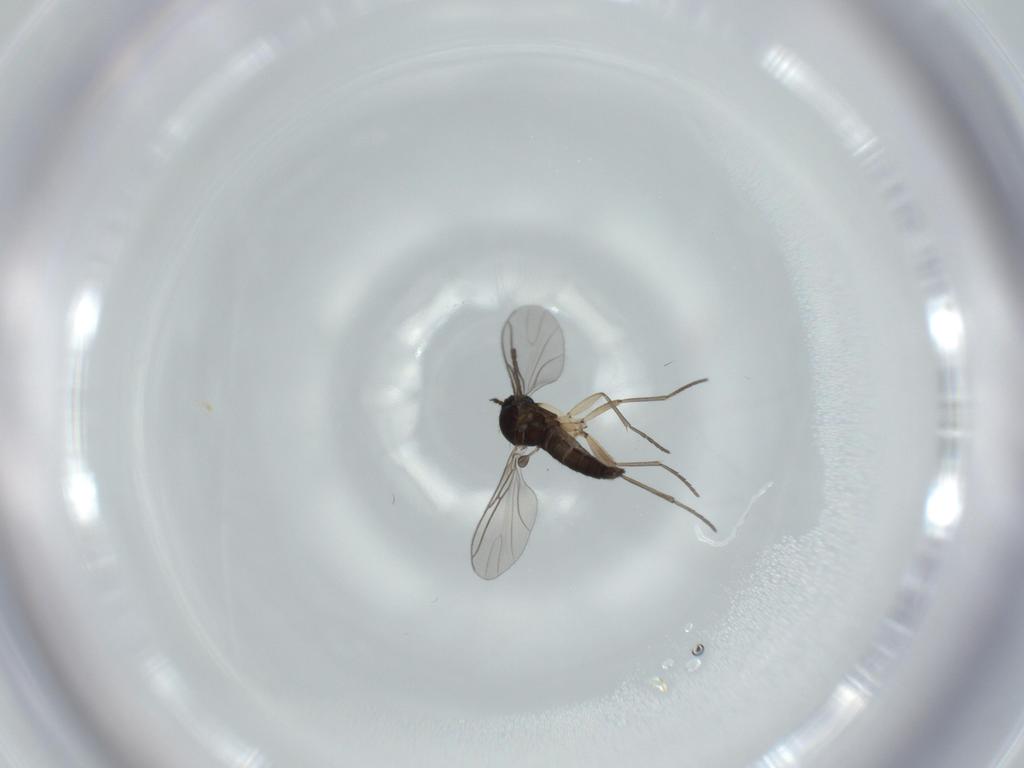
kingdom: Animalia
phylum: Arthropoda
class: Insecta
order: Diptera
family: Sciaridae
